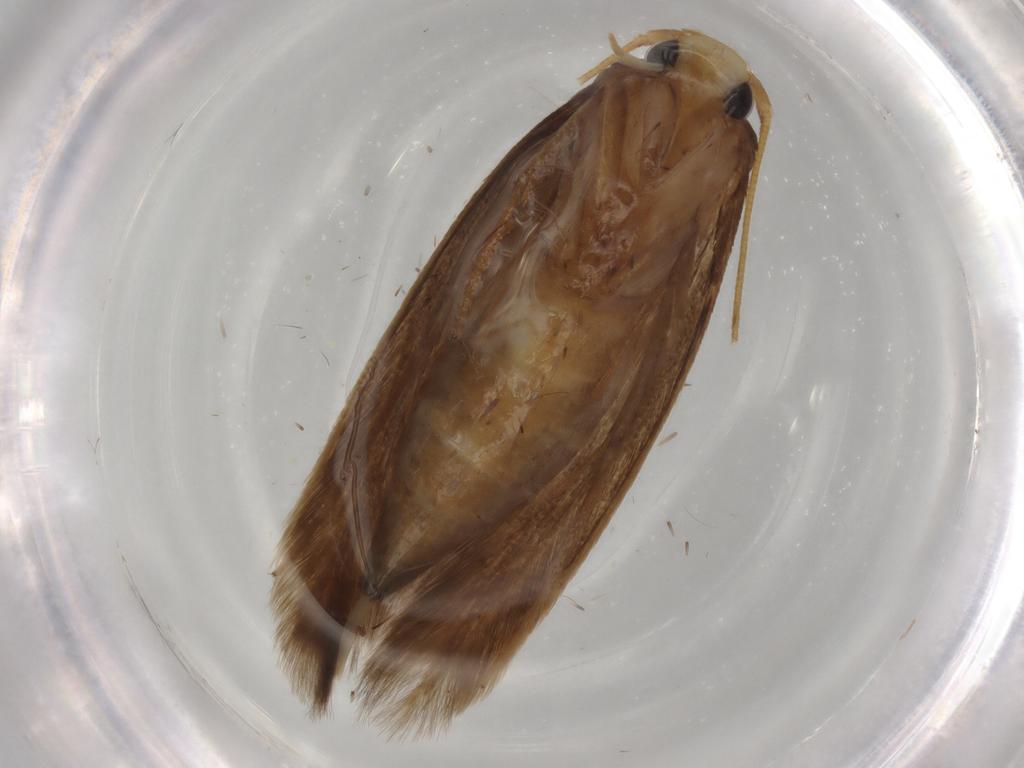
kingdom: Animalia
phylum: Arthropoda
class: Insecta
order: Lepidoptera
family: Tineidae
